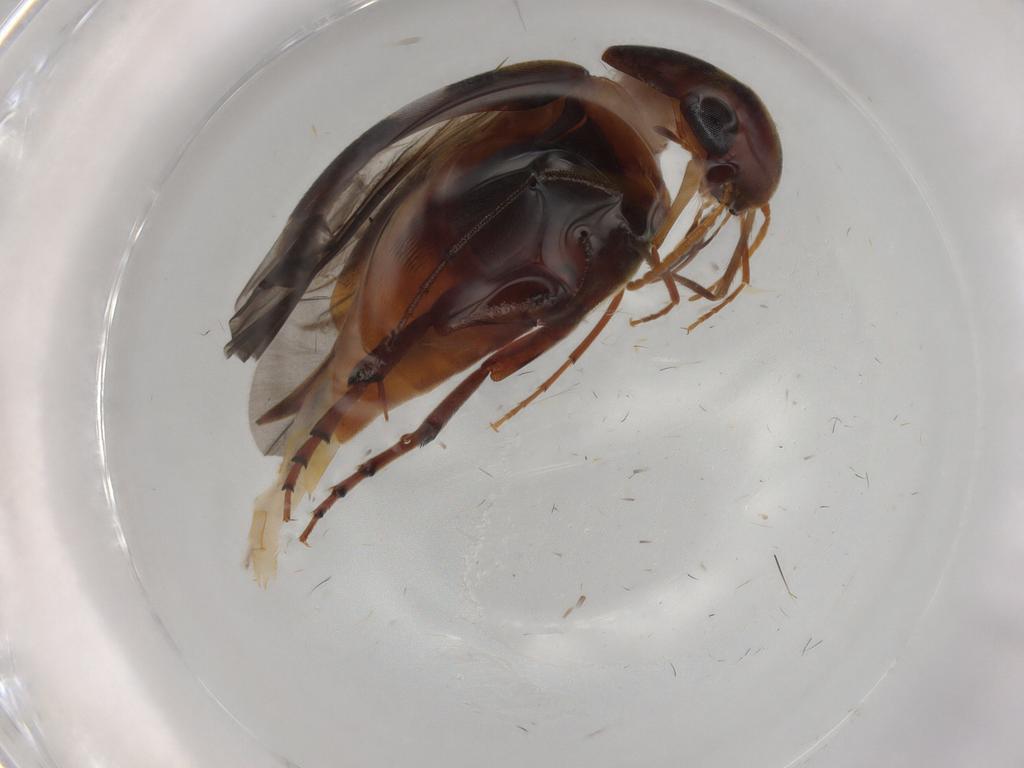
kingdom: Animalia
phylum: Arthropoda
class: Insecta
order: Coleoptera
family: Mordellidae
